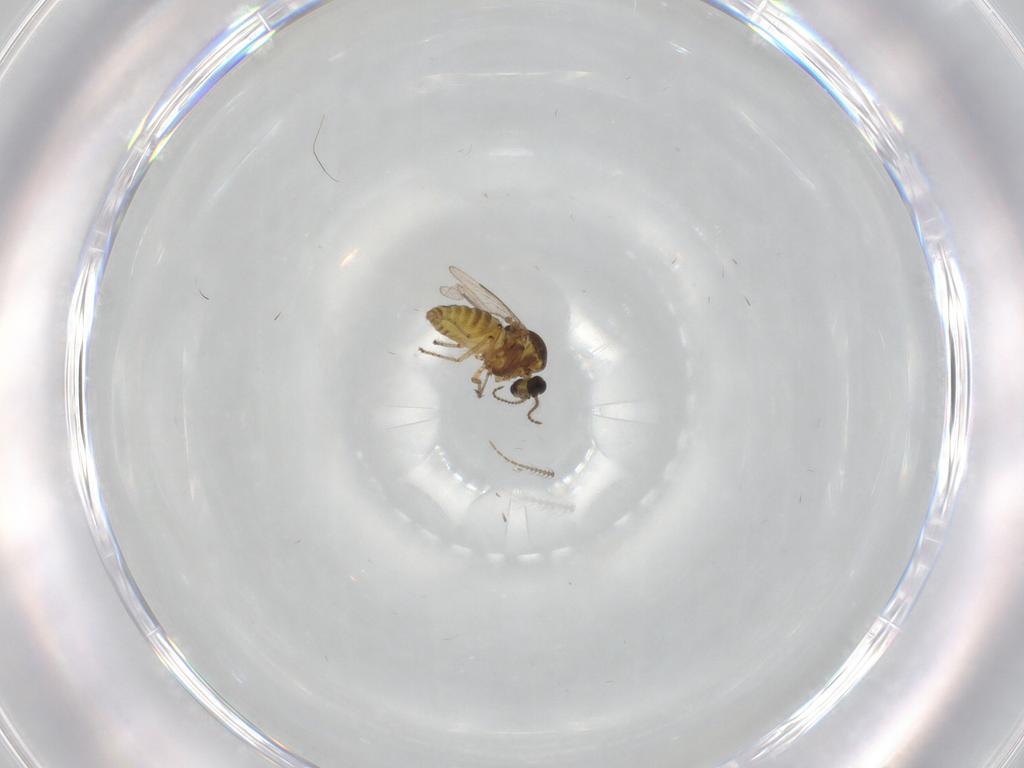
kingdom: Animalia
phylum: Arthropoda
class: Insecta
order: Diptera
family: Ceratopogonidae
